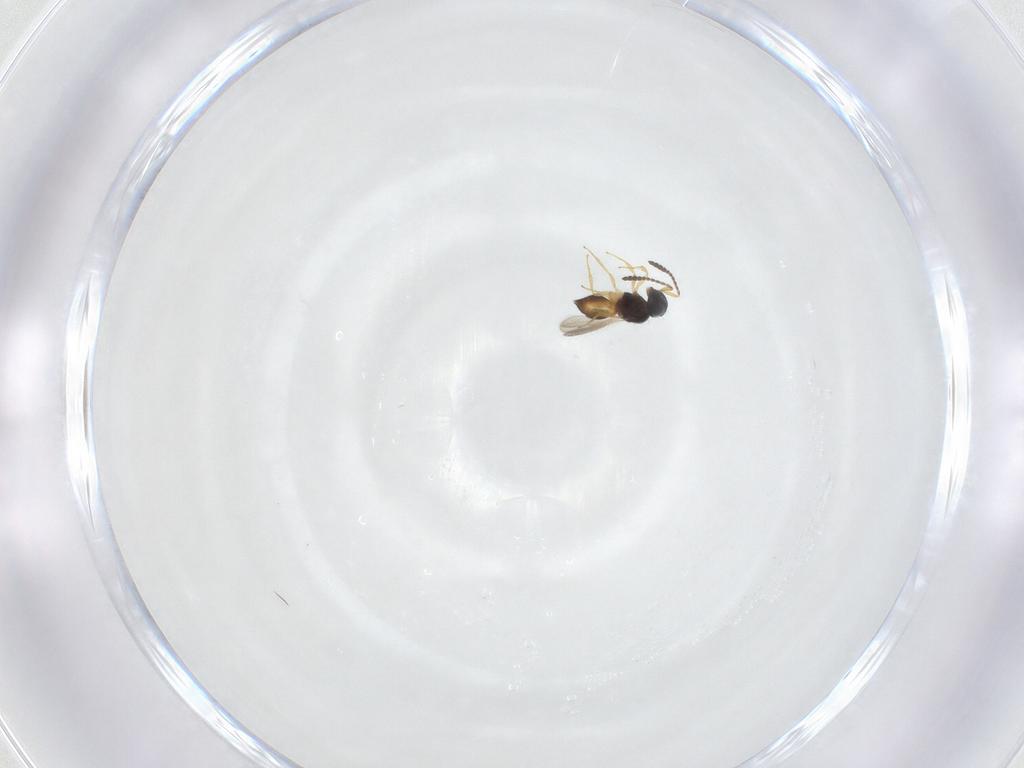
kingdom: Animalia
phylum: Arthropoda
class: Insecta
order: Hymenoptera
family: Scelionidae
